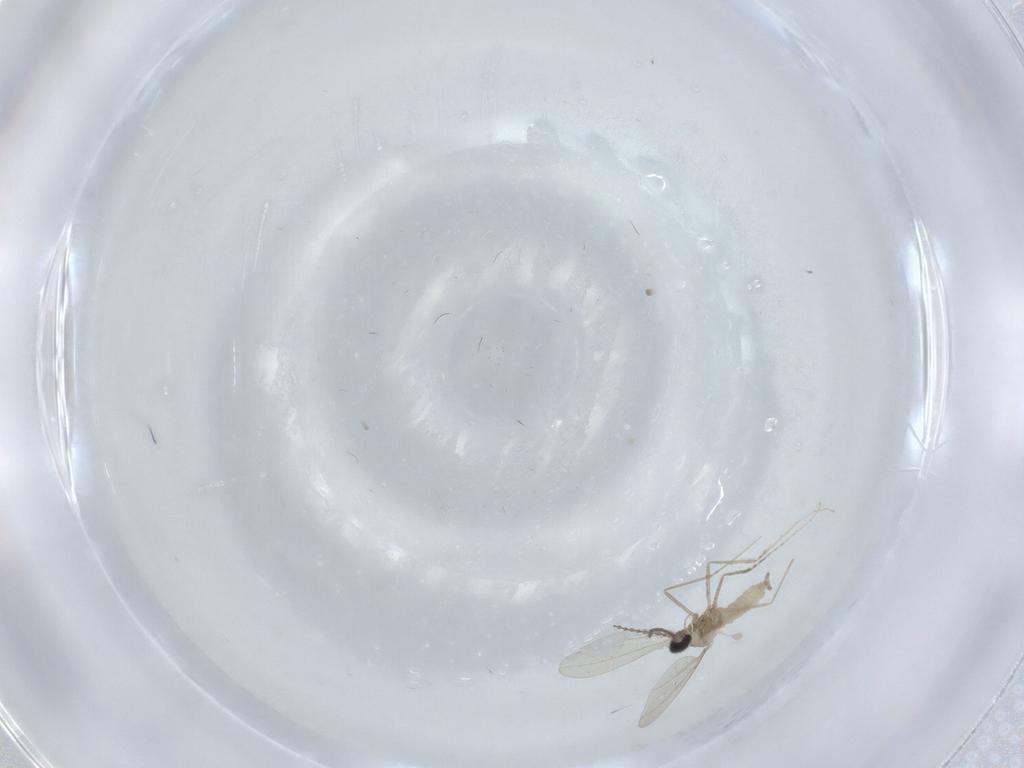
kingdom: Animalia
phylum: Arthropoda
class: Insecta
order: Diptera
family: Cecidomyiidae
